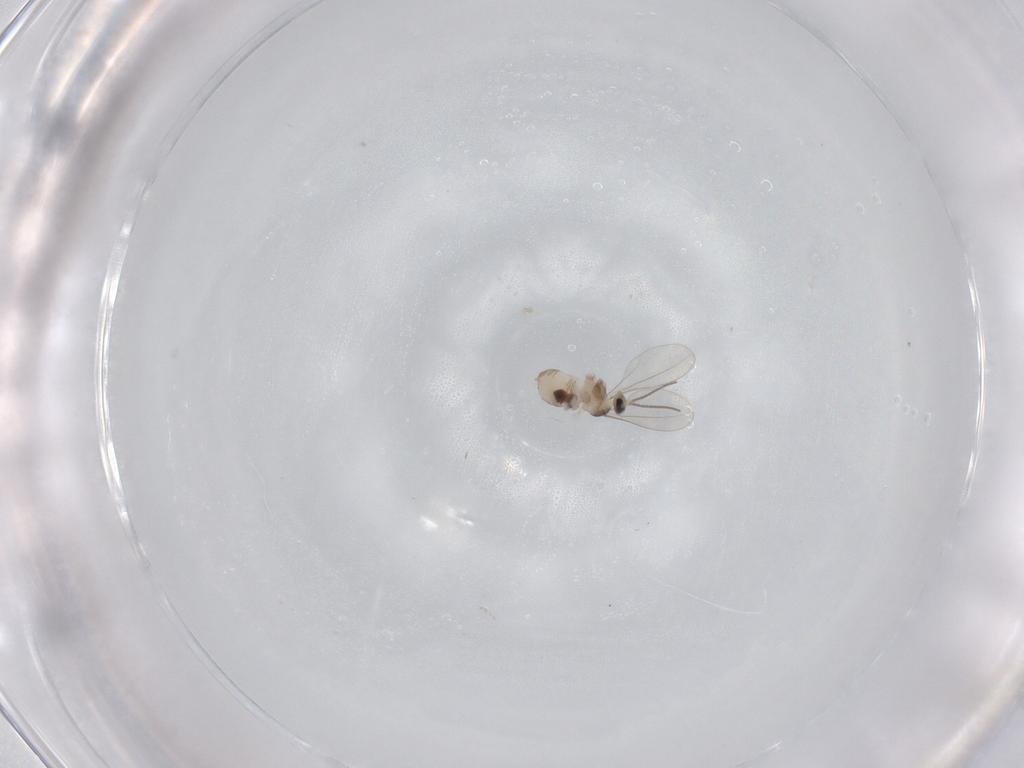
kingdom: Animalia
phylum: Arthropoda
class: Insecta
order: Diptera
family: Cecidomyiidae
